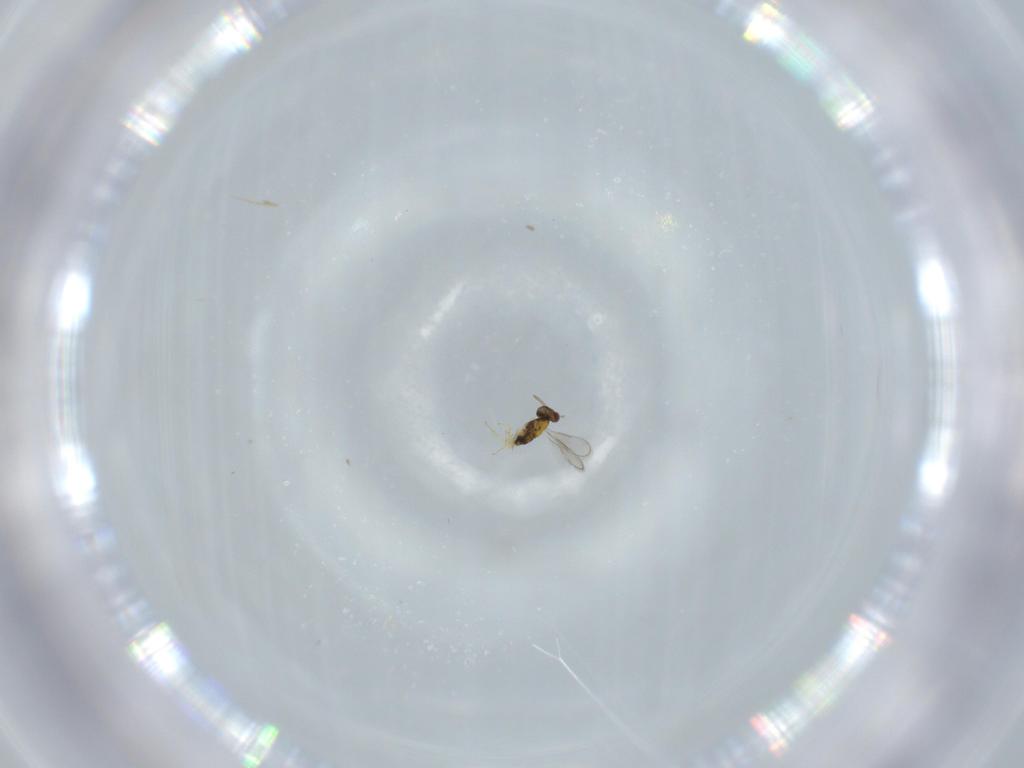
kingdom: Animalia
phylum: Arthropoda
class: Insecta
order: Hymenoptera
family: Aphelinidae
